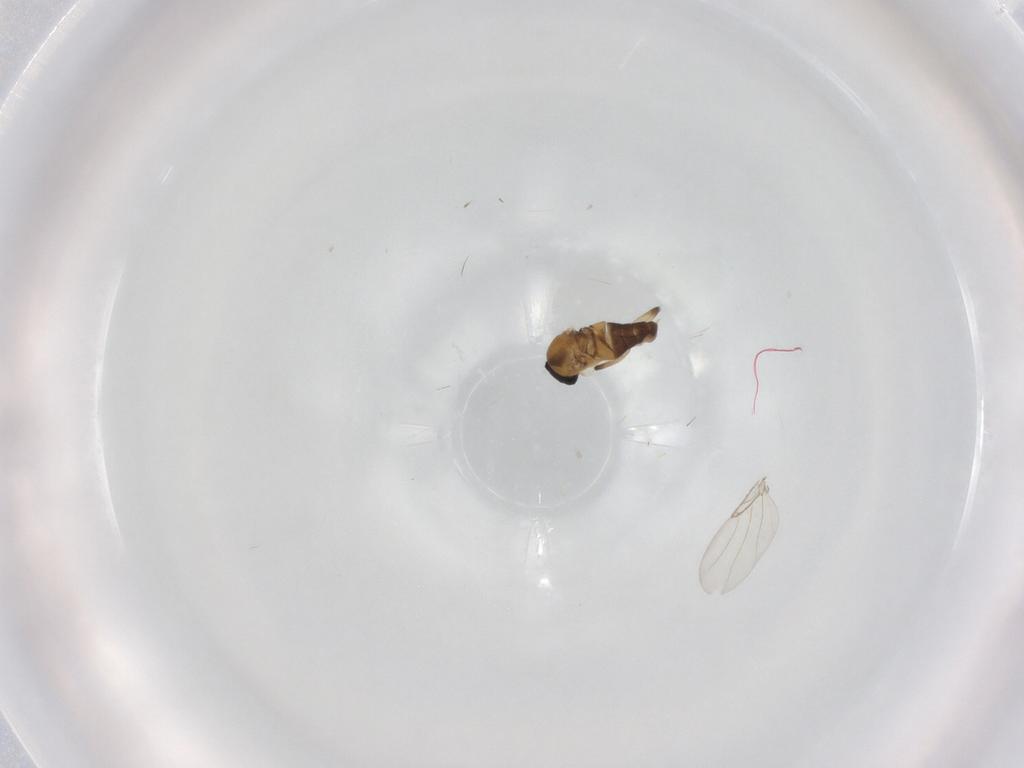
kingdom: Animalia
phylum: Arthropoda
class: Insecta
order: Diptera
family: Phoridae
